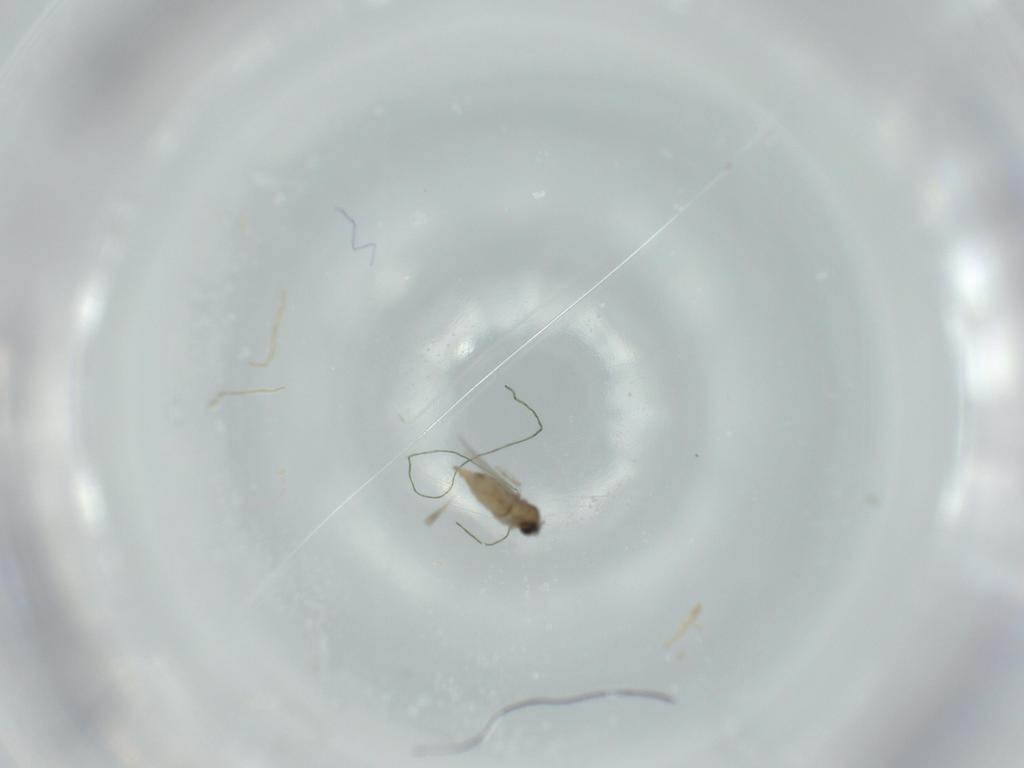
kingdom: Animalia
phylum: Arthropoda
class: Insecta
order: Diptera
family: Cecidomyiidae
